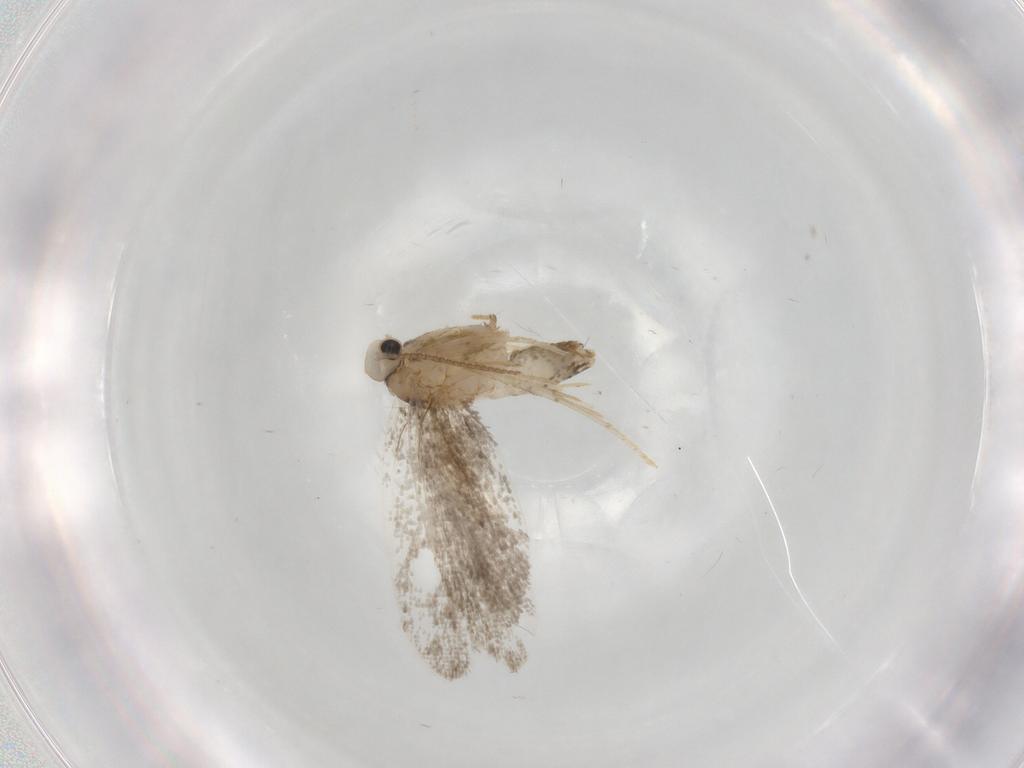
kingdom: Animalia
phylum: Arthropoda
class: Insecta
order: Lepidoptera
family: Psychidae
